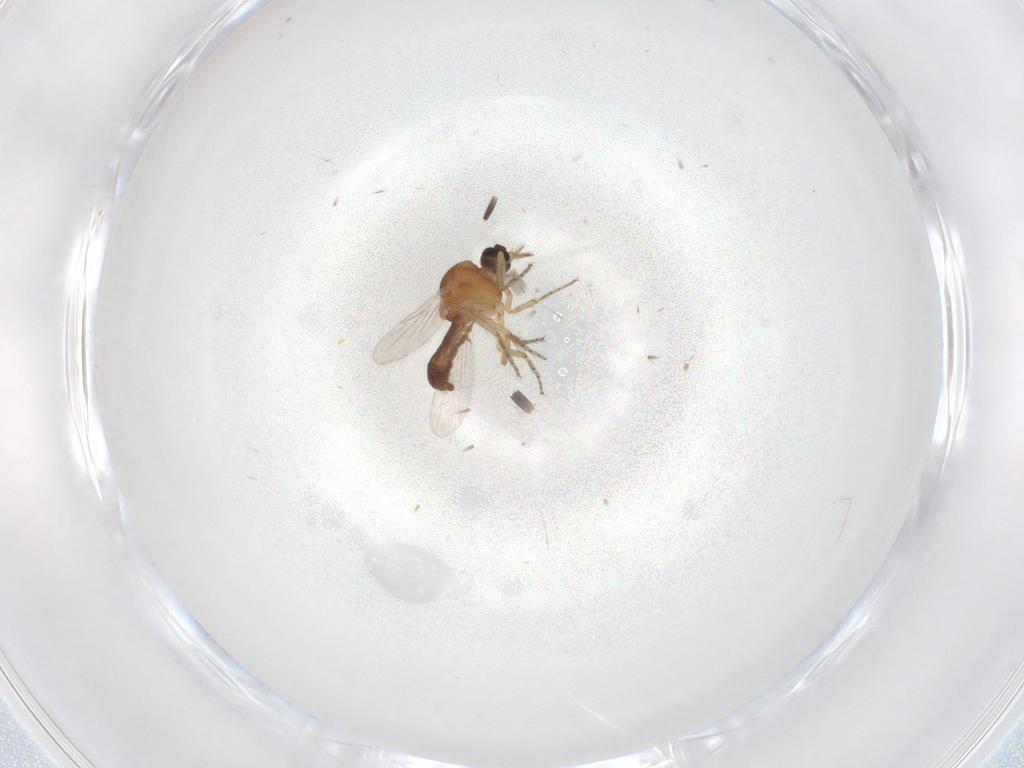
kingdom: Animalia
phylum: Arthropoda
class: Insecta
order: Diptera
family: Ceratopogonidae
